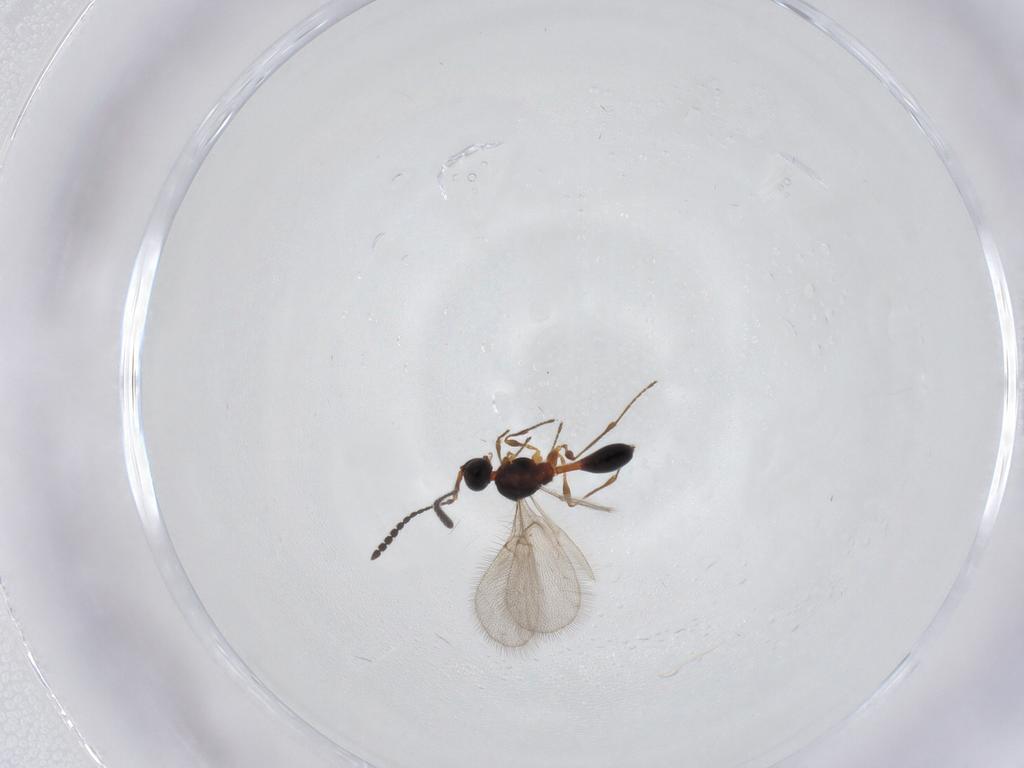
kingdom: Animalia
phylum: Arthropoda
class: Insecta
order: Hymenoptera
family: Diapriidae
